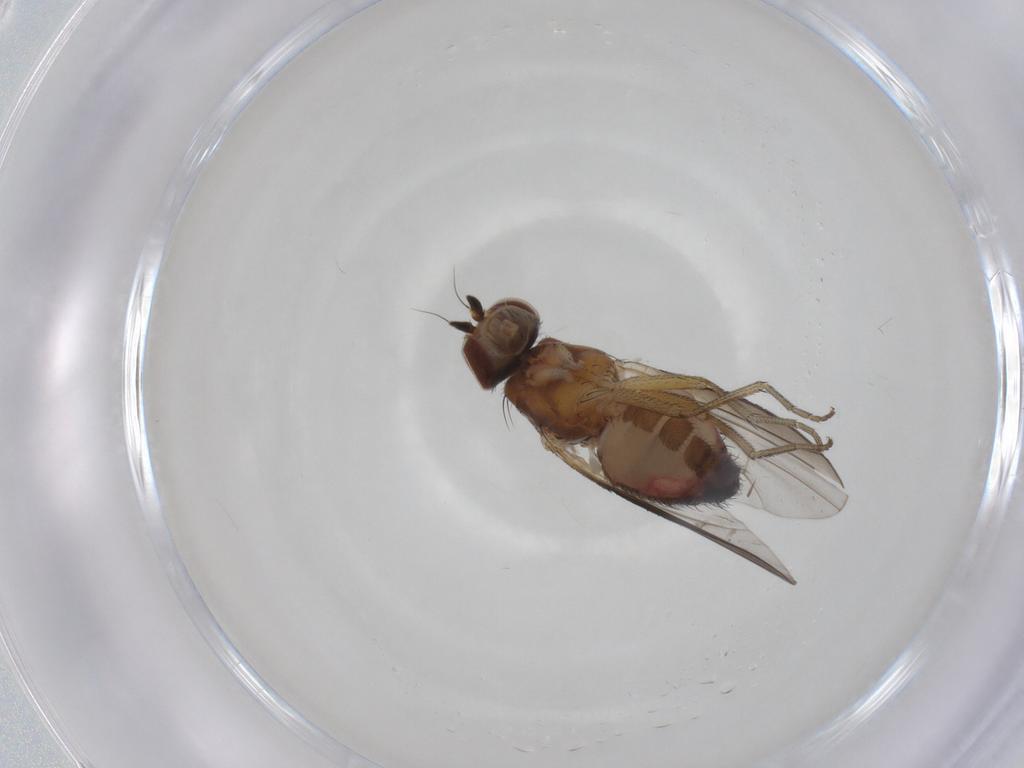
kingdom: Animalia
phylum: Arthropoda
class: Insecta
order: Diptera
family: Heleomyzidae
